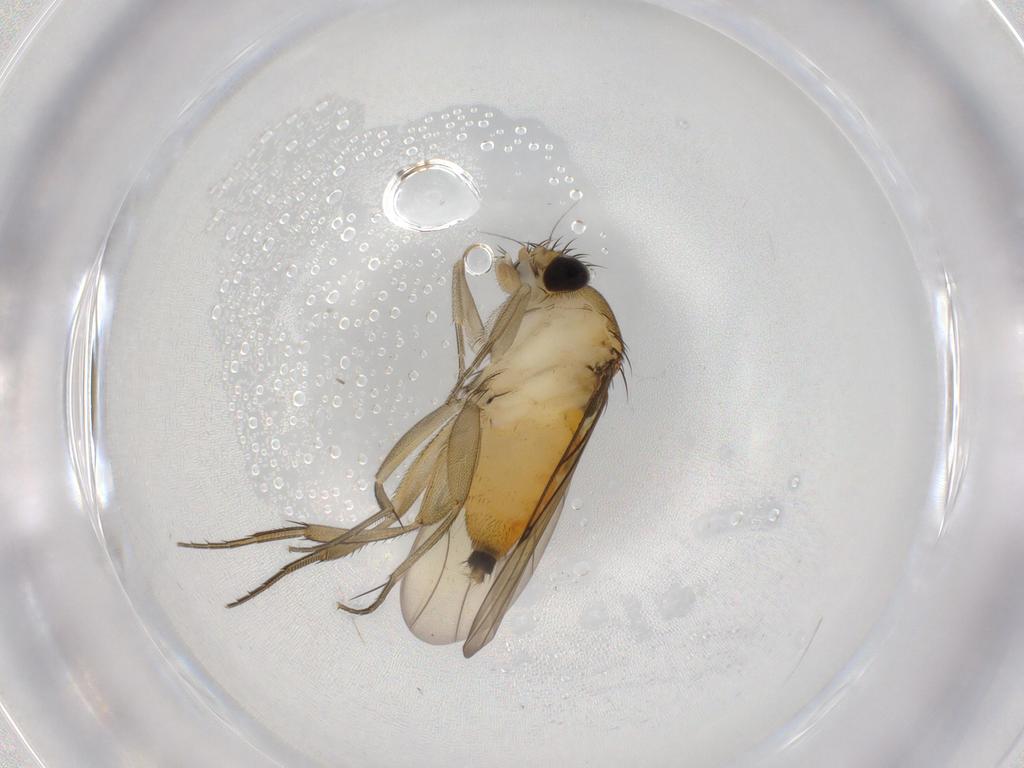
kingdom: Animalia
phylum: Arthropoda
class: Insecta
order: Diptera
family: Phoridae
